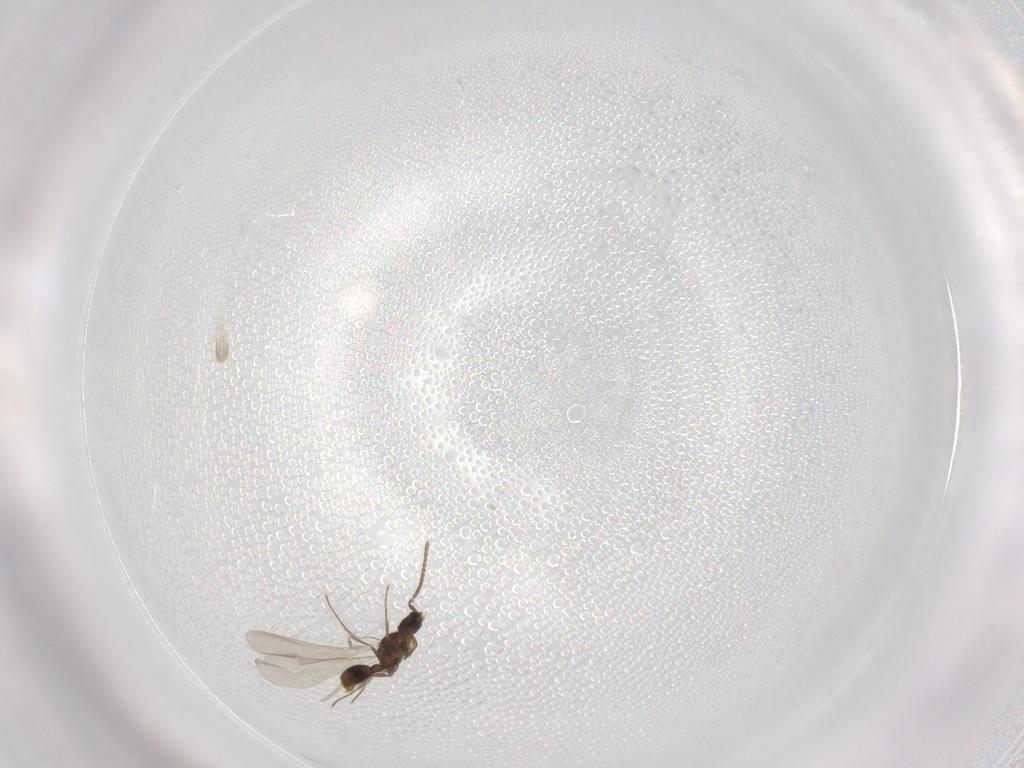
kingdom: Animalia
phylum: Arthropoda
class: Insecta
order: Hymenoptera
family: Formicidae
